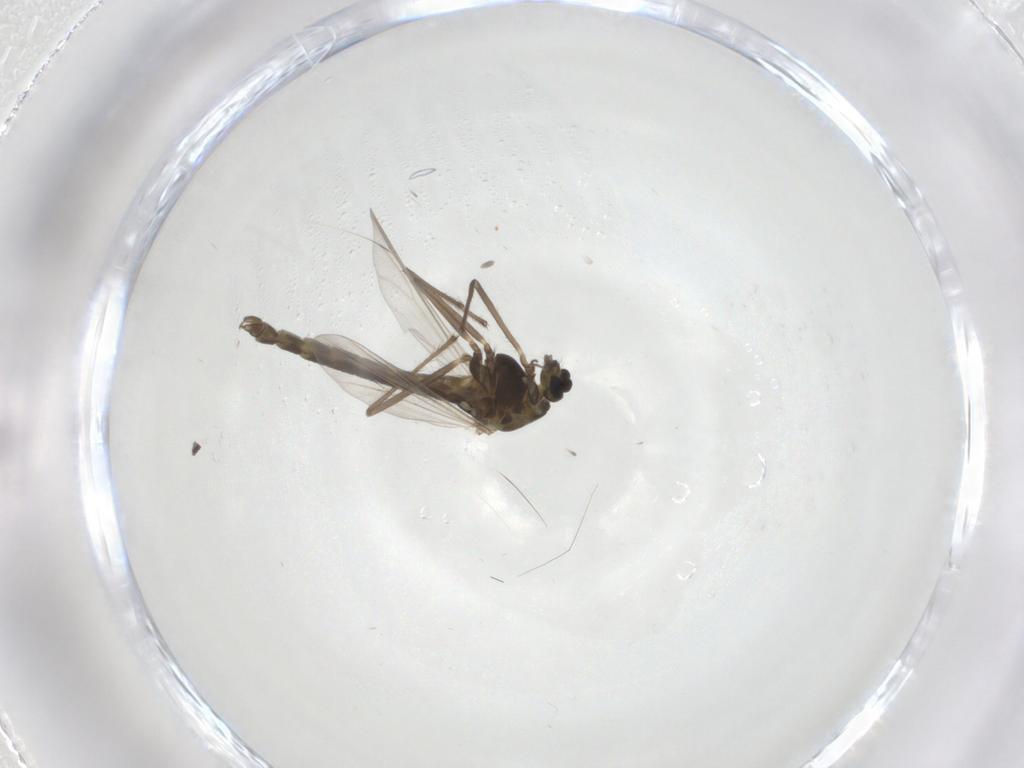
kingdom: Animalia
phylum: Arthropoda
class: Insecta
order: Diptera
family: Chironomidae
